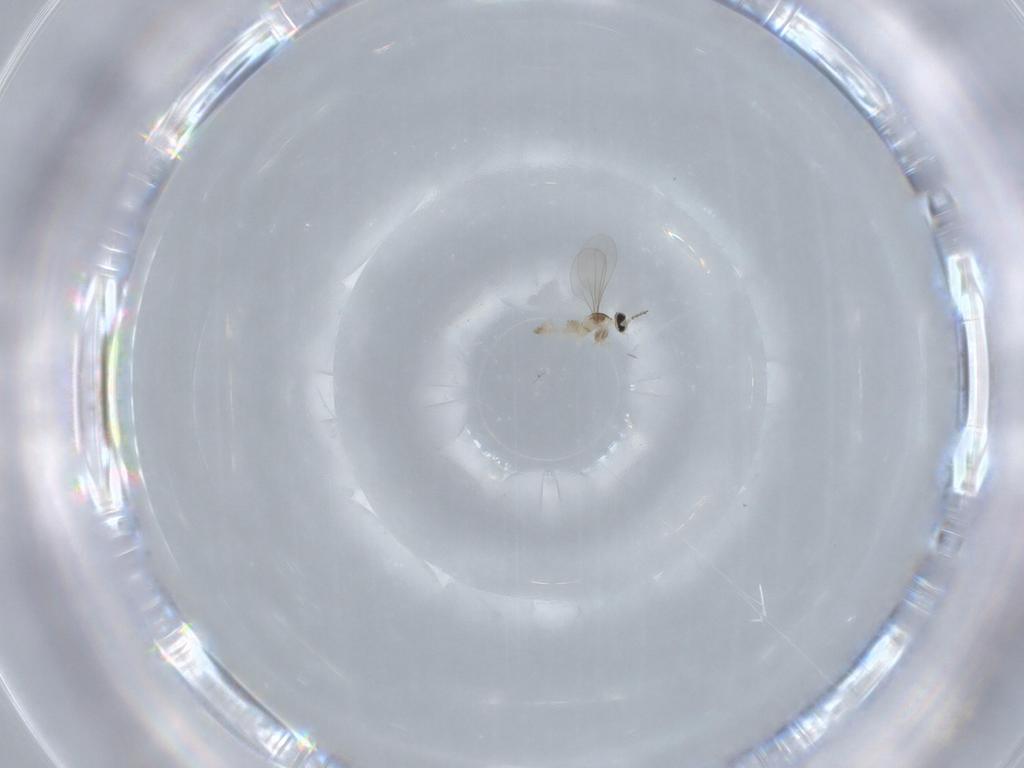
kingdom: Animalia
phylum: Arthropoda
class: Insecta
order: Diptera
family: Cecidomyiidae
